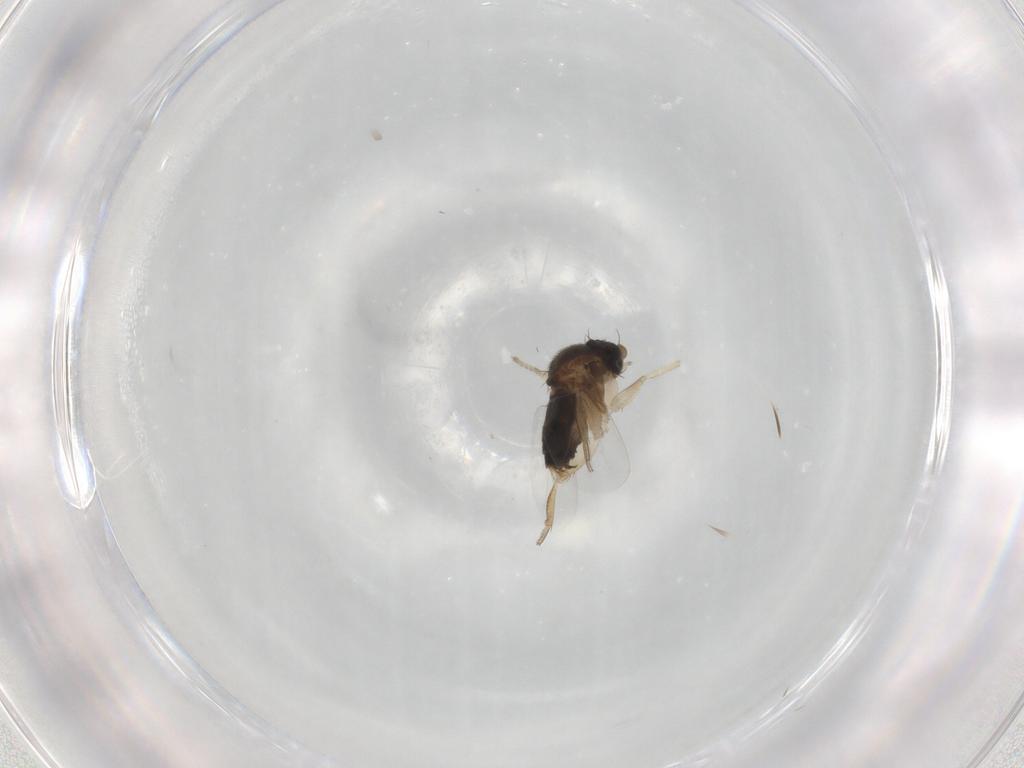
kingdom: Animalia
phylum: Arthropoda
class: Insecta
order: Diptera
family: Phoridae
